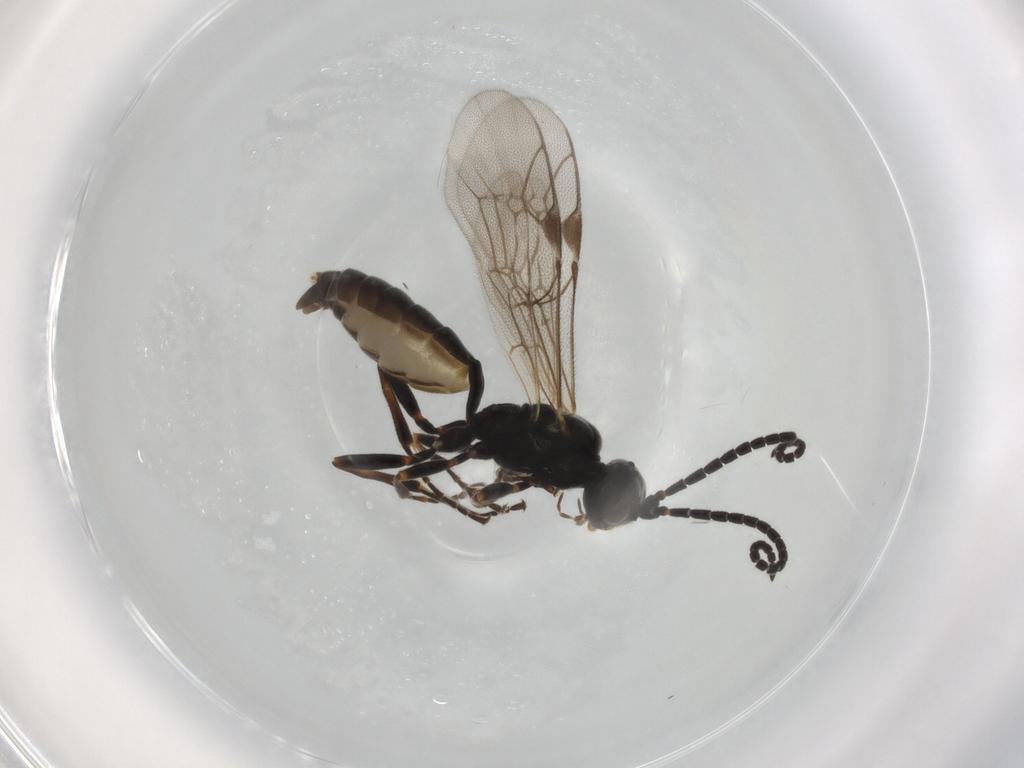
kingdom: Animalia
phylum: Arthropoda
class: Insecta
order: Hymenoptera
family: Ichneumonidae
